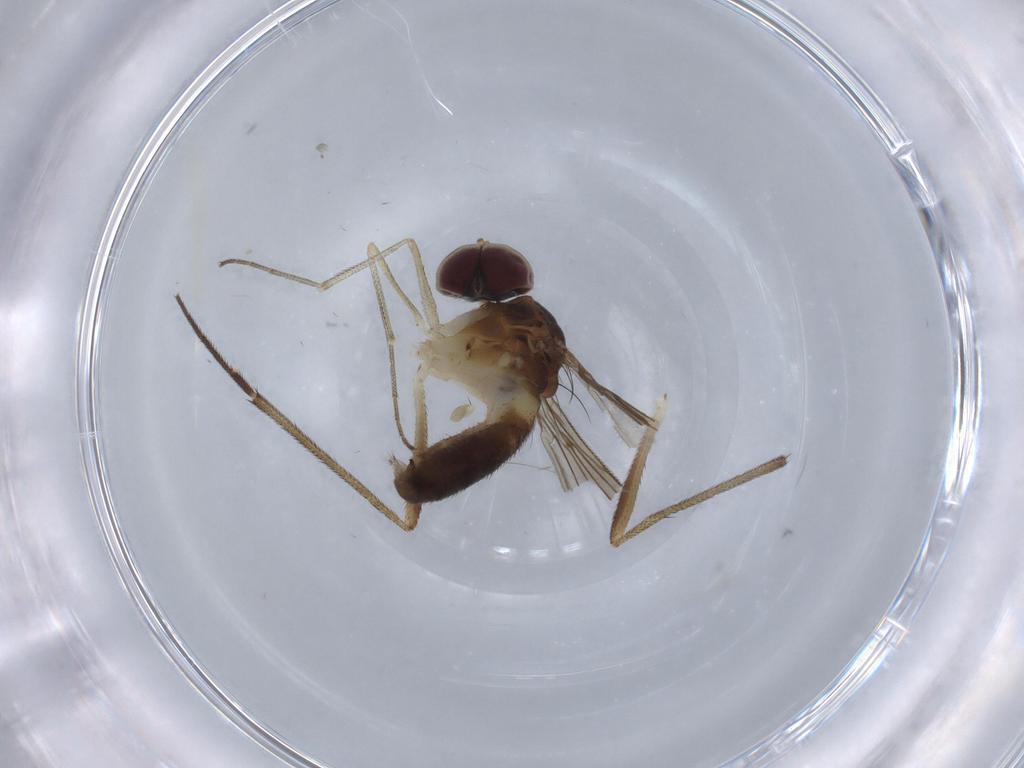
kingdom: Animalia
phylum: Arthropoda
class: Insecta
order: Diptera
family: Dolichopodidae
